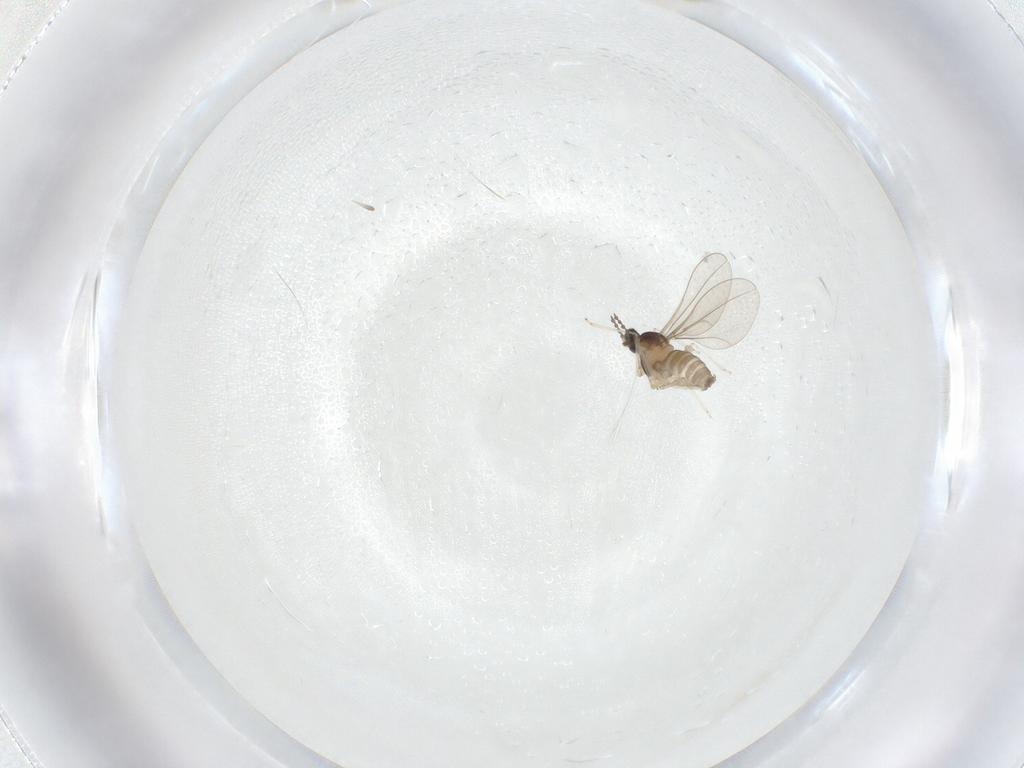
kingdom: Animalia
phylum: Arthropoda
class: Insecta
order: Diptera
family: Cecidomyiidae
